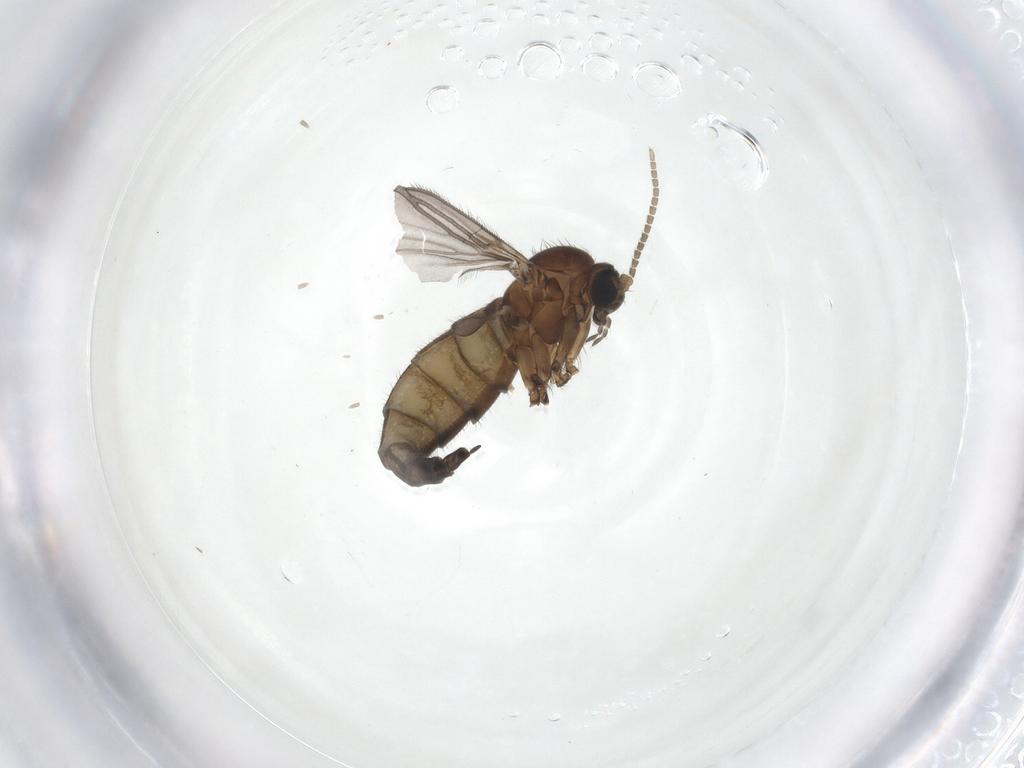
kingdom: Animalia
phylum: Arthropoda
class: Insecta
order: Diptera
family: Sciaridae
